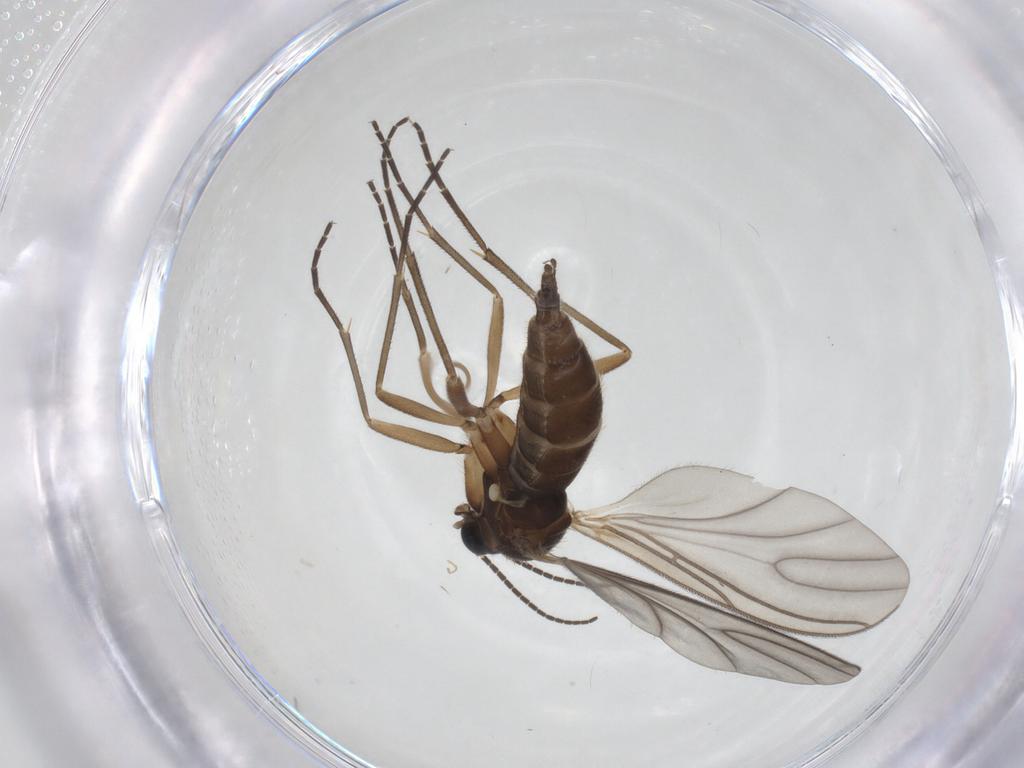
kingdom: Animalia
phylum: Arthropoda
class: Insecta
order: Diptera
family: Sciaridae
